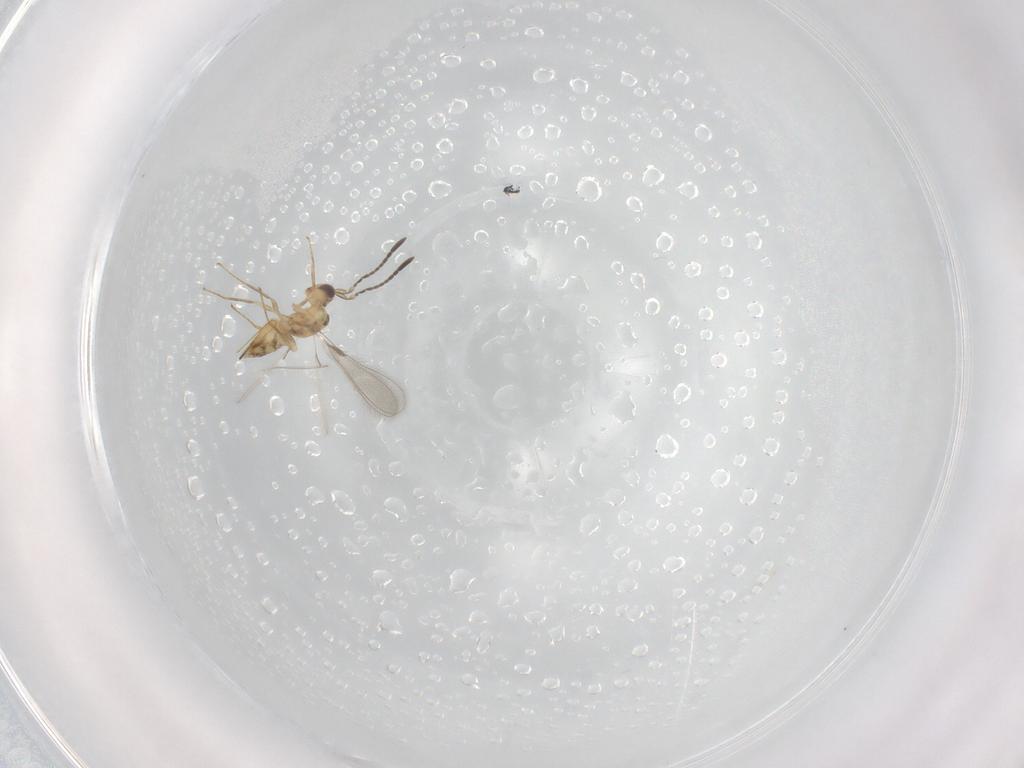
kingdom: Animalia
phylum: Arthropoda
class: Insecta
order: Hymenoptera
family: Mymaridae
